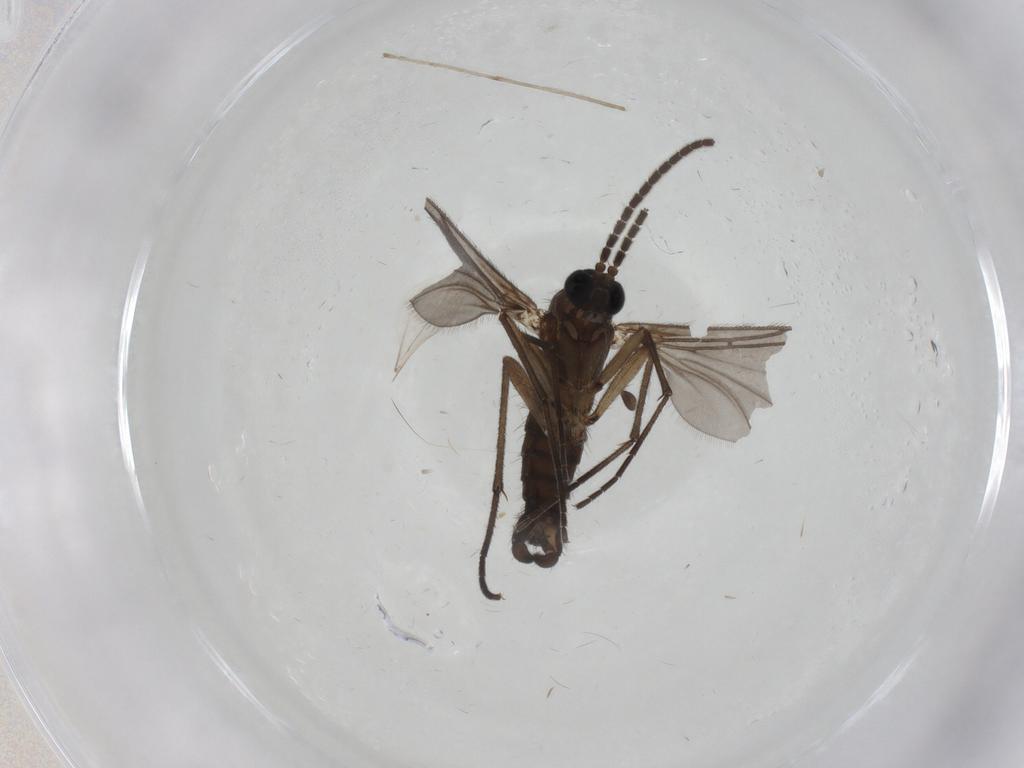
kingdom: Animalia
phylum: Arthropoda
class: Insecta
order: Diptera
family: Sciaridae
